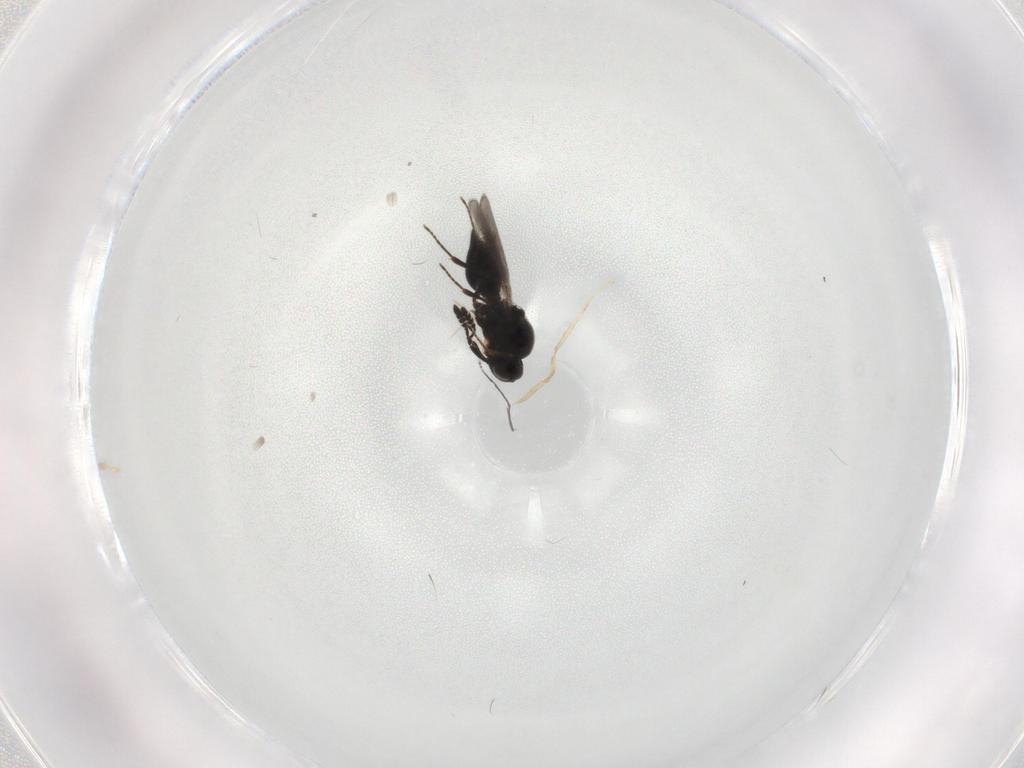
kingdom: Animalia
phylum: Arthropoda
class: Insecta
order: Hymenoptera
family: Platygastridae
